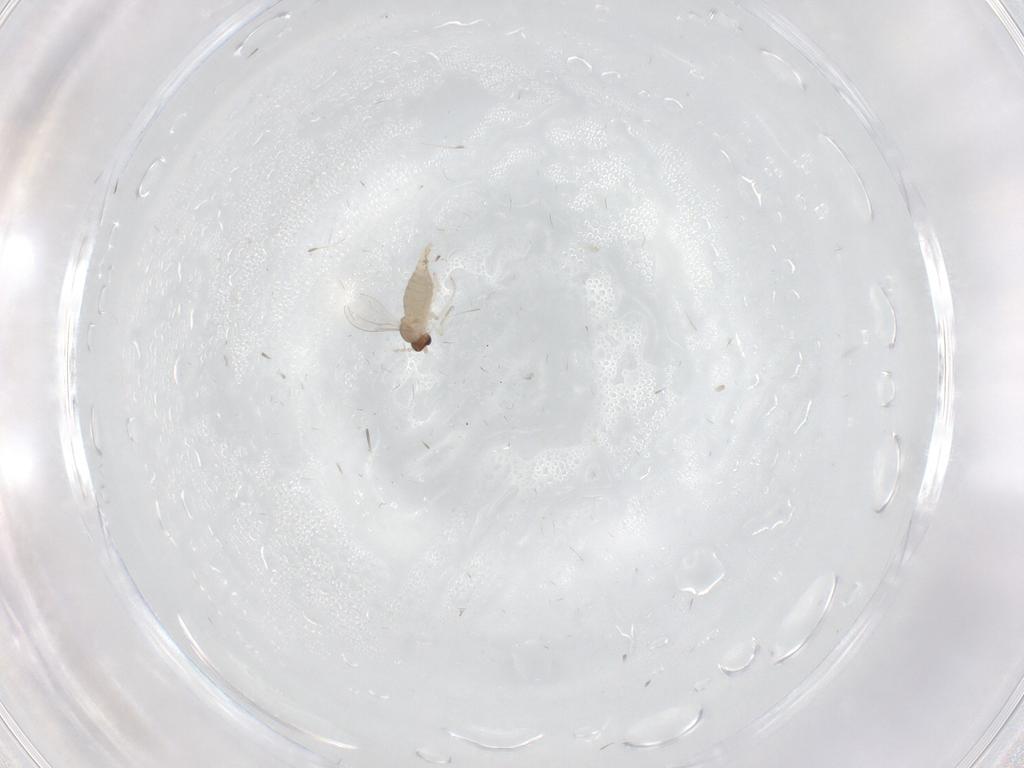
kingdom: Animalia
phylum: Arthropoda
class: Insecta
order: Diptera
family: Cecidomyiidae
